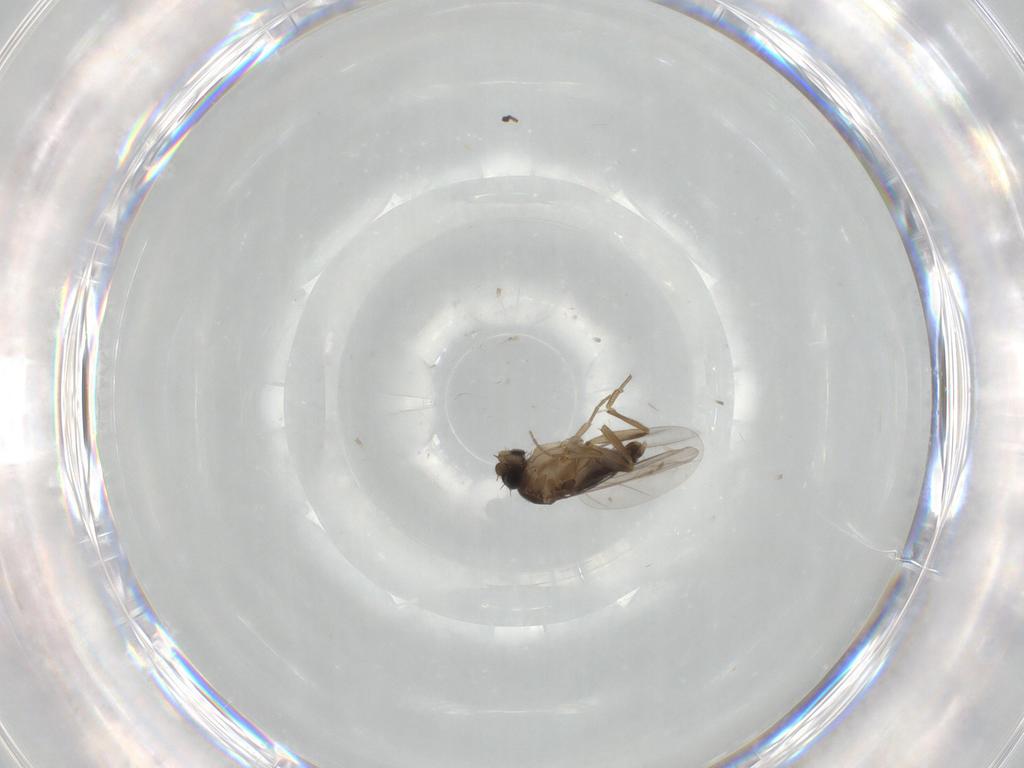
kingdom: Animalia
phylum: Arthropoda
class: Insecta
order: Diptera
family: Phoridae
